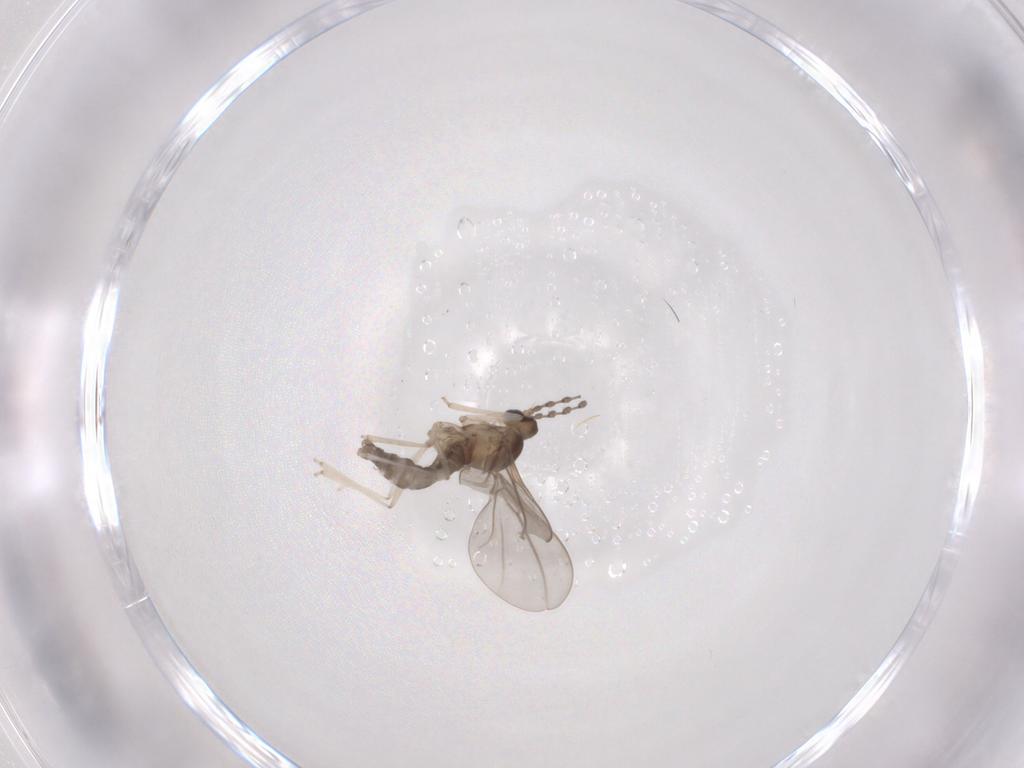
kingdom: Animalia
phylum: Arthropoda
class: Insecta
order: Diptera
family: Cecidomyiidae
